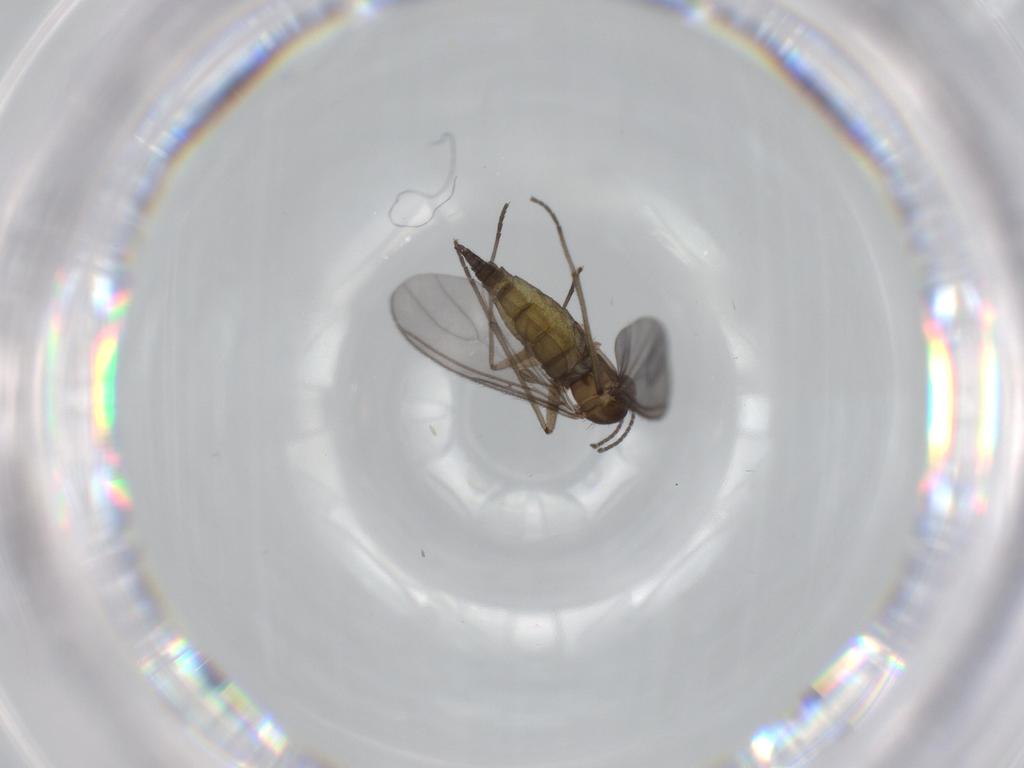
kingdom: Animalia
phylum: Arthropoda
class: Insecta
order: Diptera
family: Sciaridae
